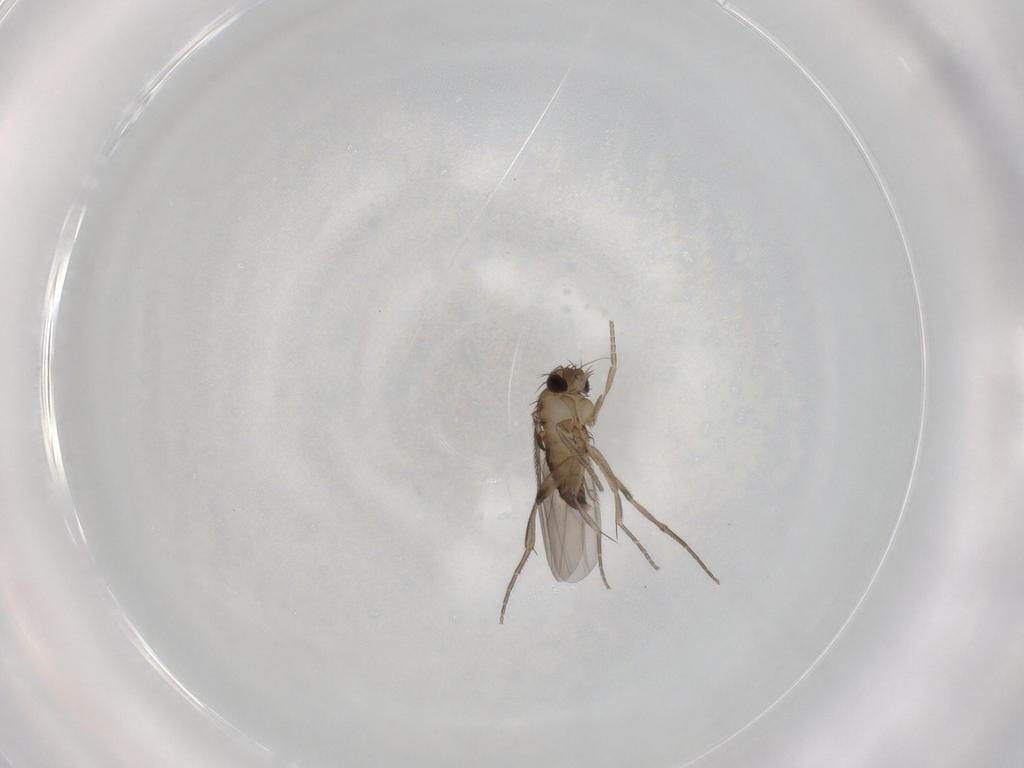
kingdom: Animalia
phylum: Arthropoda
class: Insecta
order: Diptera
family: Phoridae
